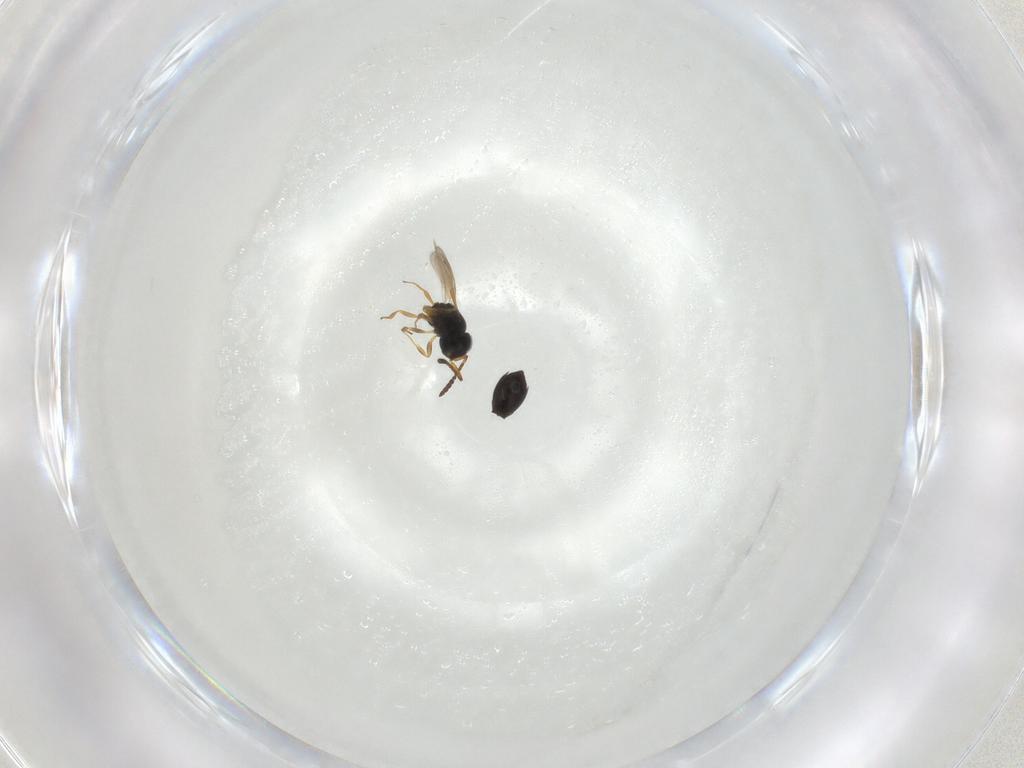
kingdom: Animalia
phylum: Arthropoda
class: Insecta
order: Hymenoptera
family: Scelionidae
